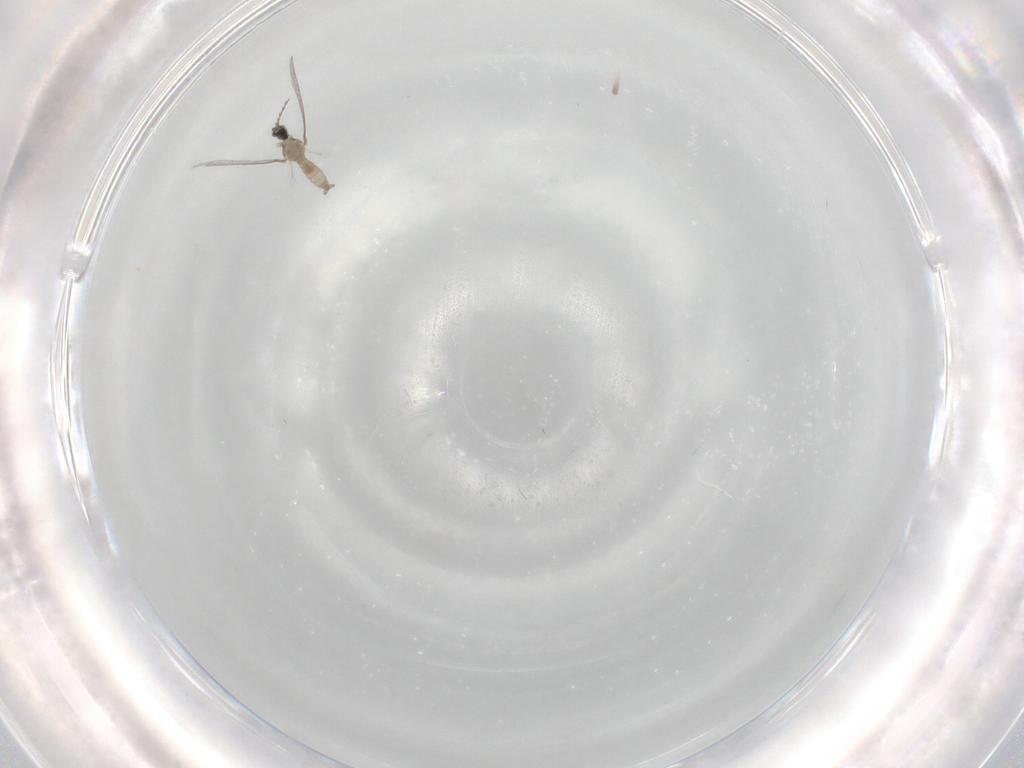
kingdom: Animalia
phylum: Arthropoda
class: Insecta
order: Diptera
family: Cecidomyiidae
